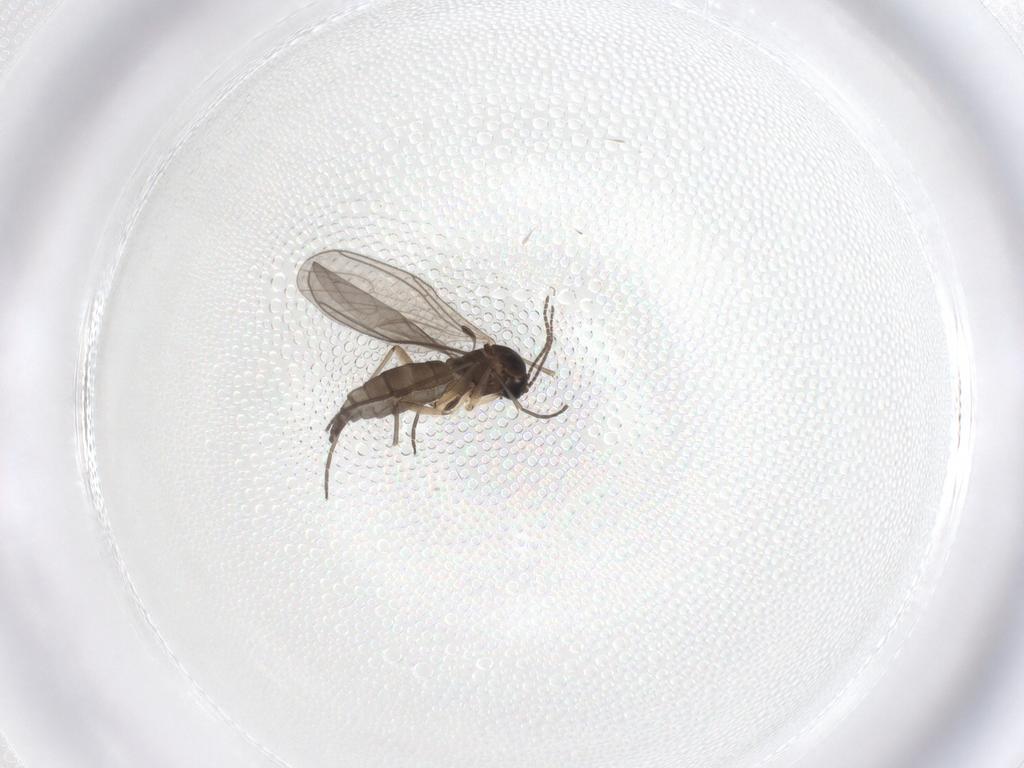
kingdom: Animalia
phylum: Arthropoda
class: Insecta
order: Diptera
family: Sciaridae
